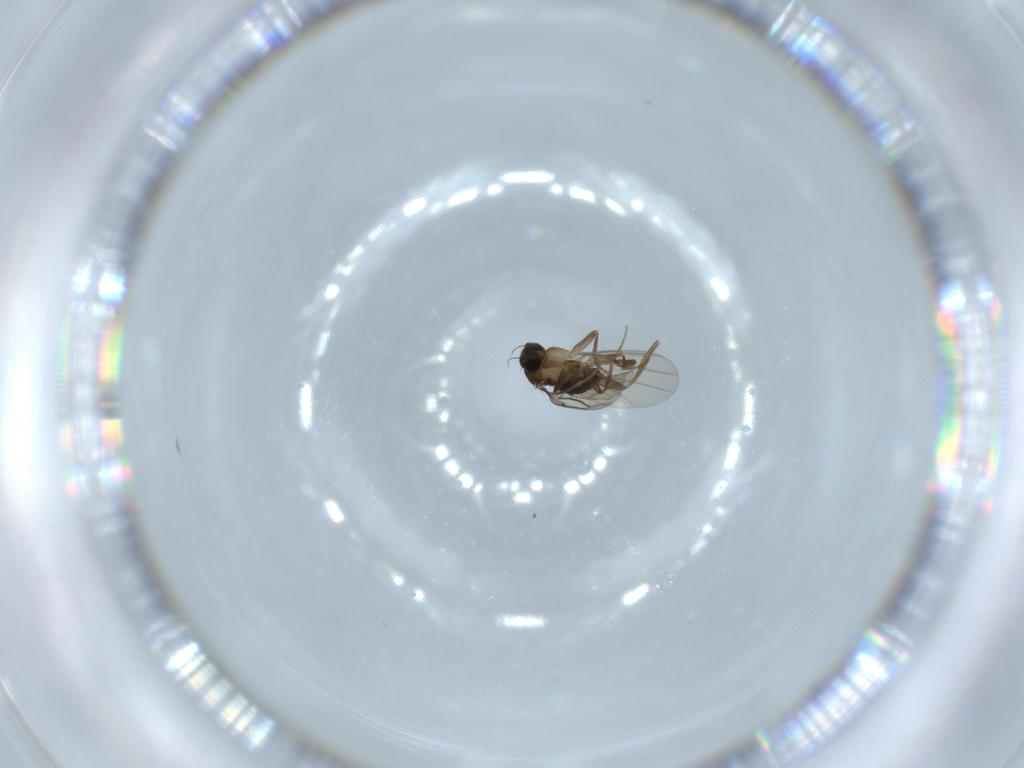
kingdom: Animalia
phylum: Arthropoda
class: Insecta
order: Diptera
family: Phoridae
